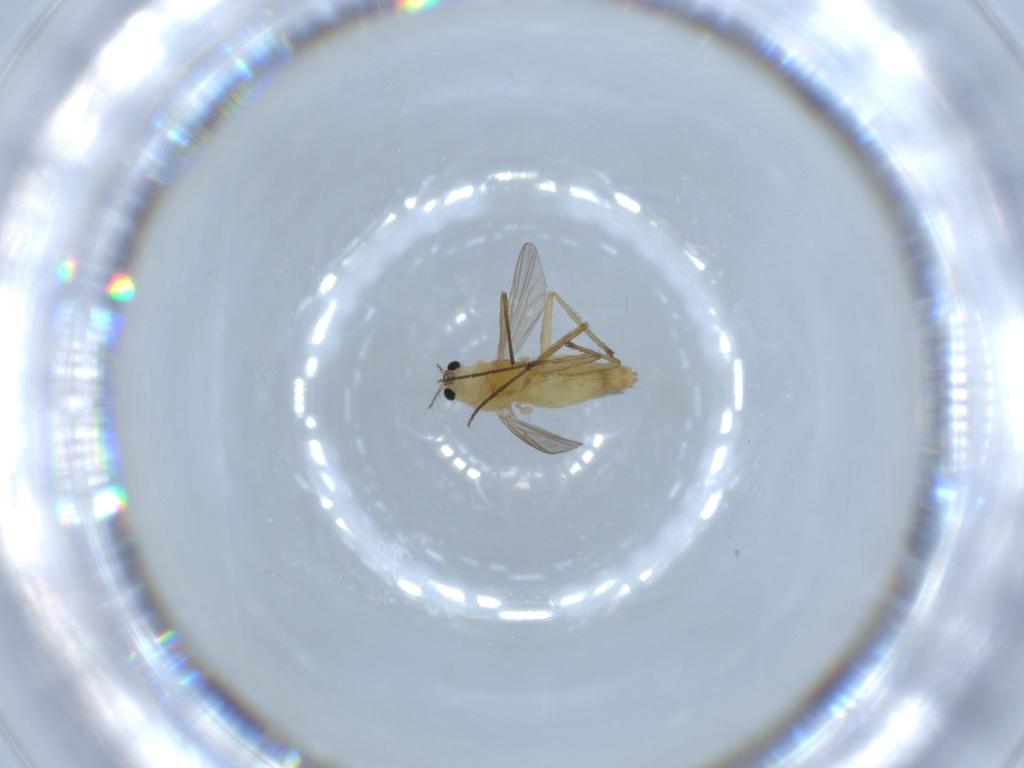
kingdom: Animalia
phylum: Arthropoda
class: Insecta
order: Diptera
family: Chironomidae
